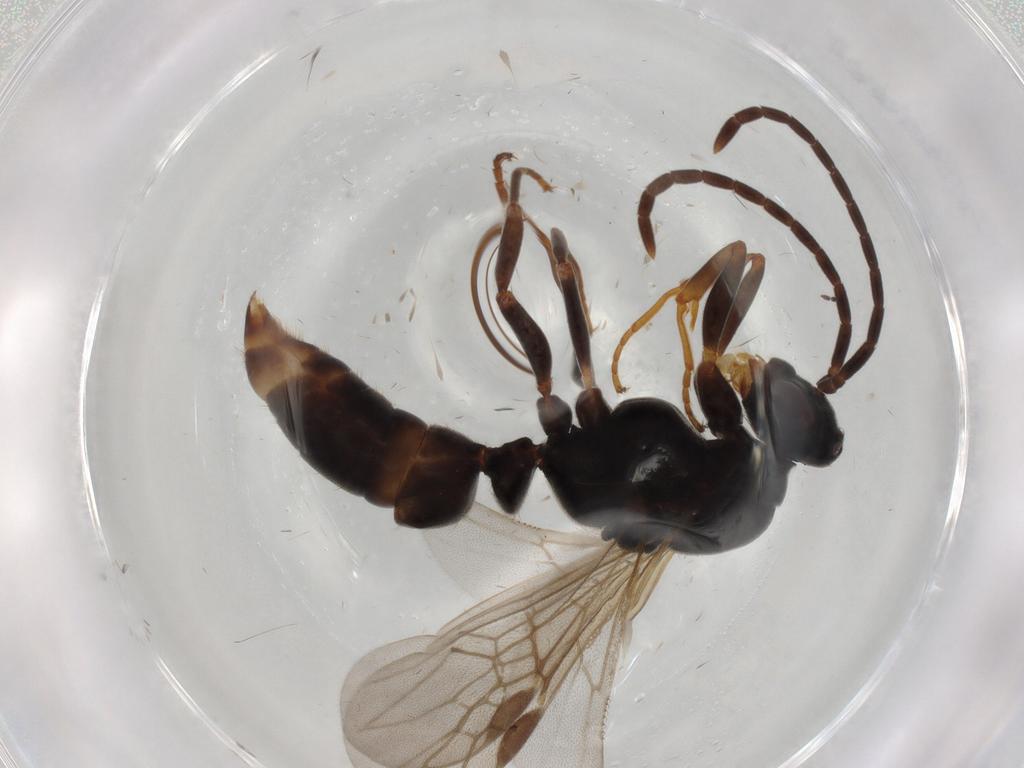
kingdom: Animalia
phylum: Arthropoda
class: Insecta
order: Hymenoptera
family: Formicidae
